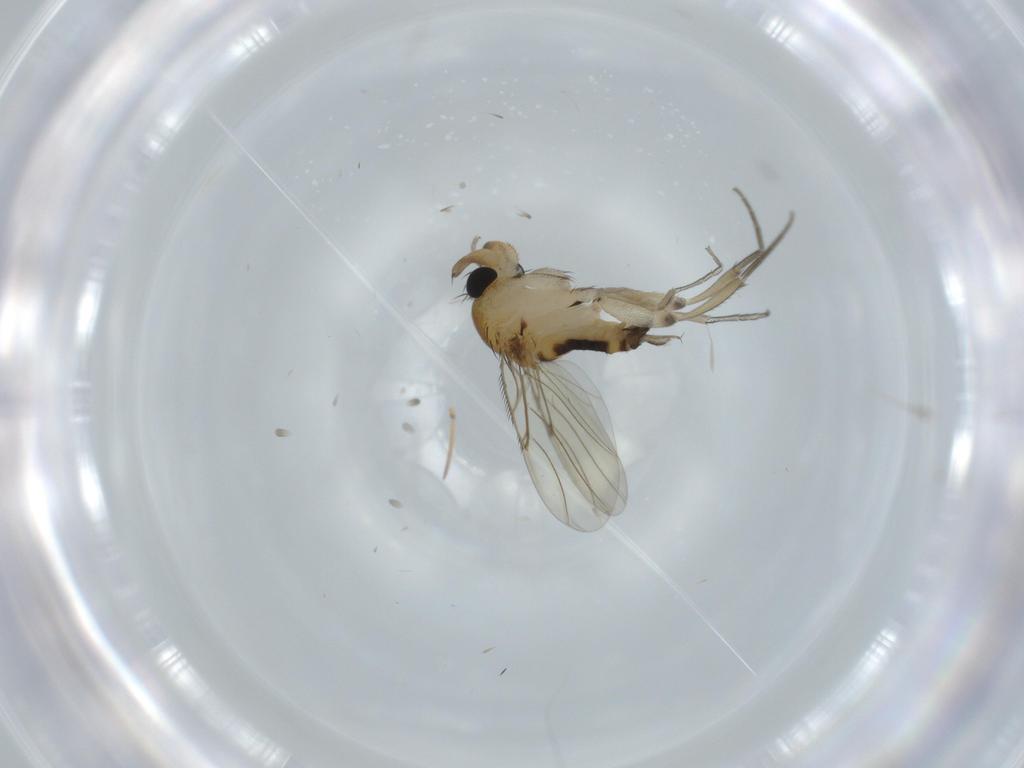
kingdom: Animalia
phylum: Arthropoda
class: Insecta
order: Diptera
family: Phoridae
